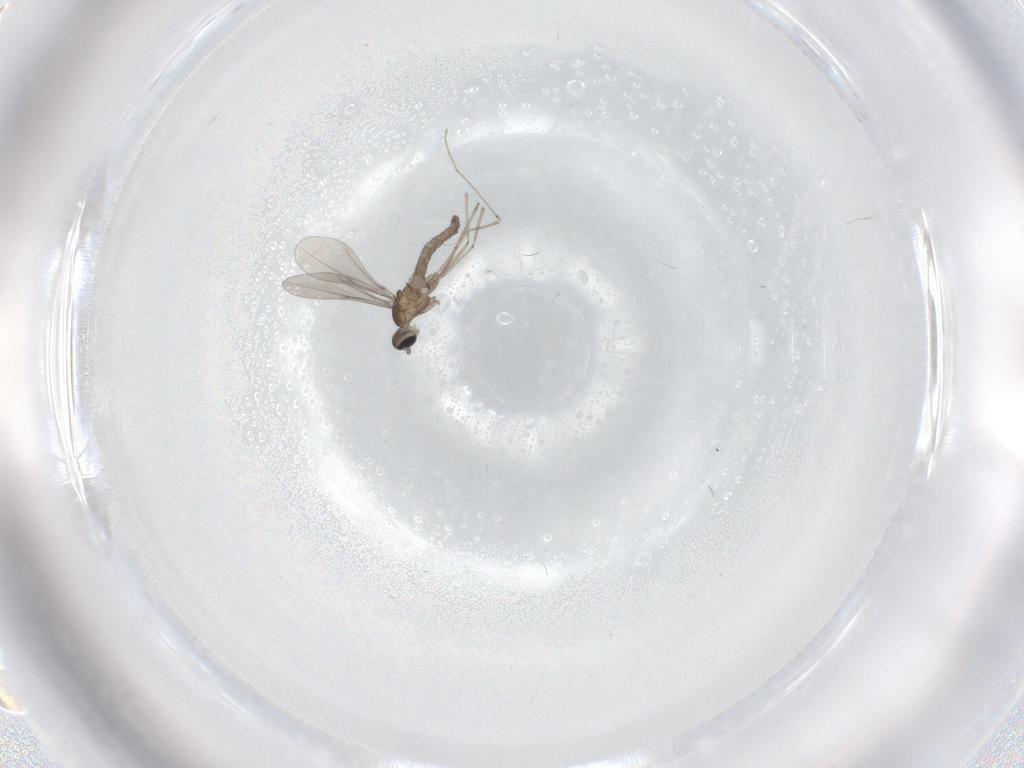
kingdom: Animalia
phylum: Arthropoda
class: Insecta
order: Diptera
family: Cecidomyiidae
